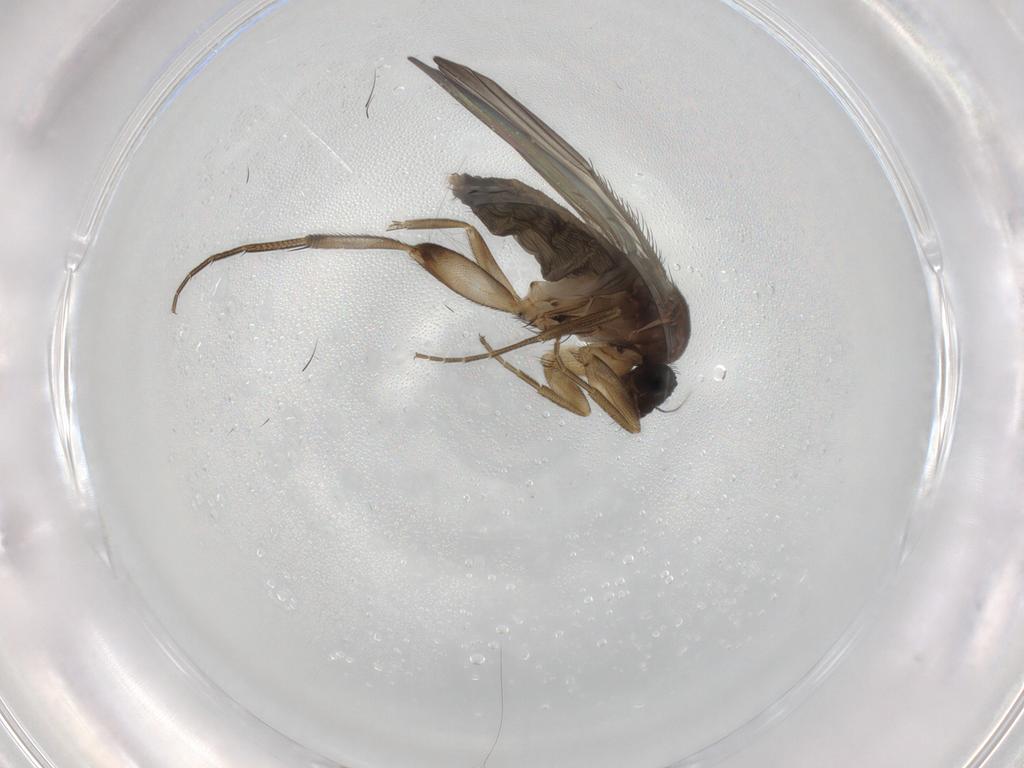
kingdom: Animalia
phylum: Arthropoda
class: Insecta
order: Diptera
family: Phoridae
